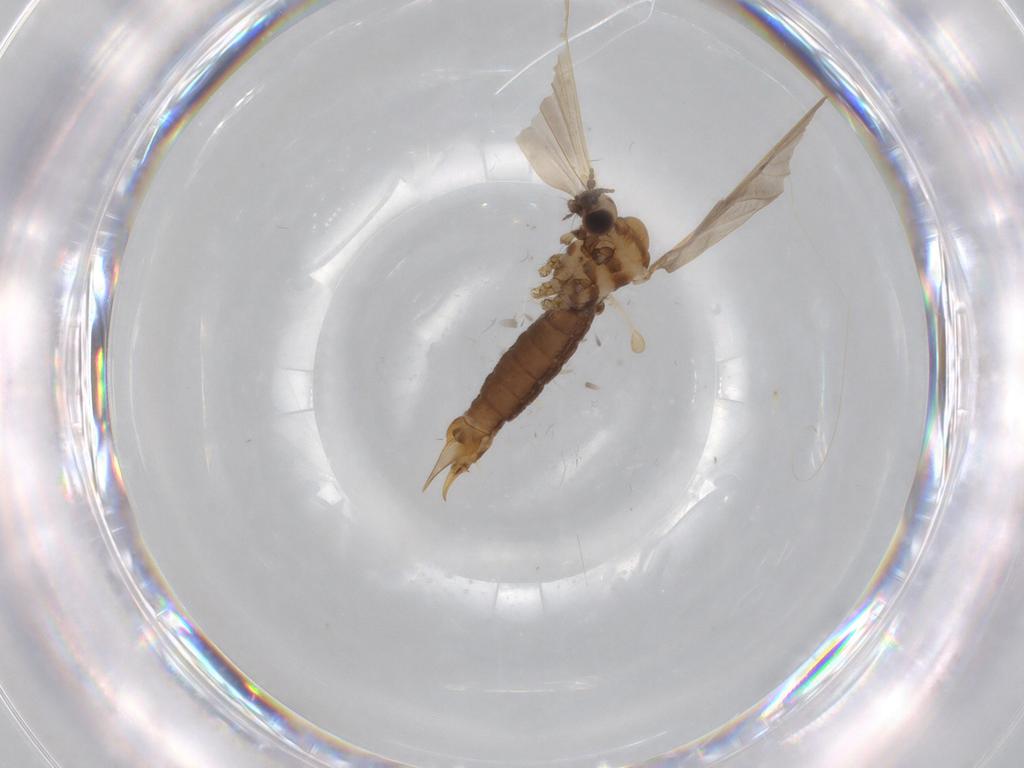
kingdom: Animalia
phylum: Arthropoda
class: Insecta
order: Diptera
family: Limoniidae
